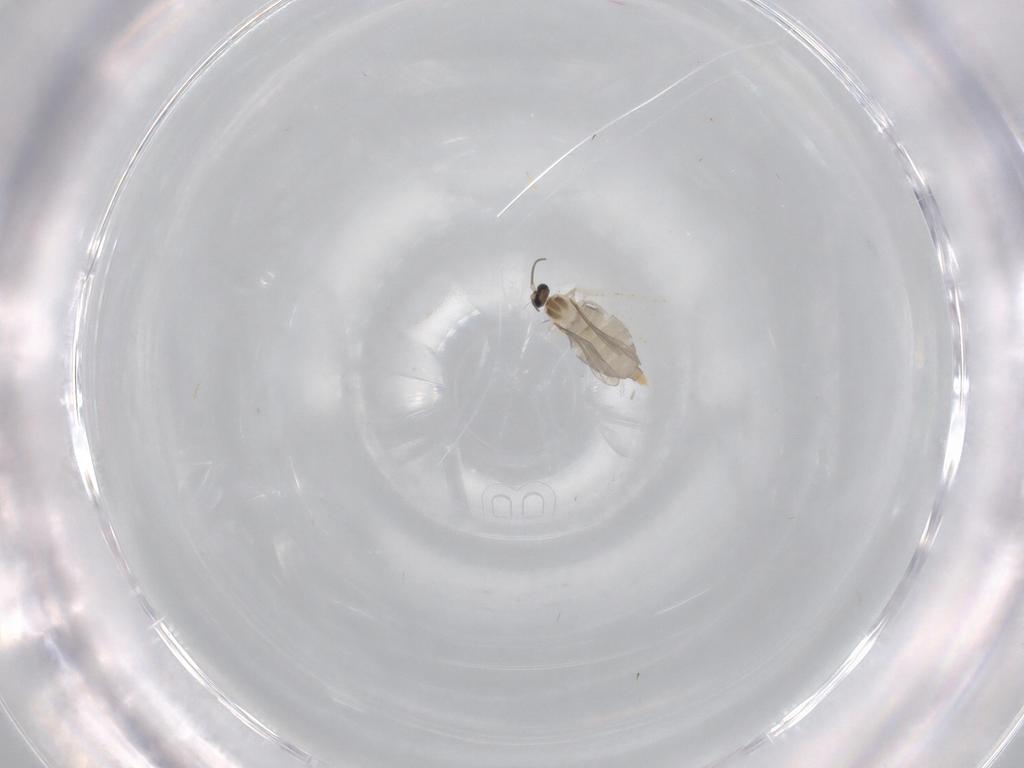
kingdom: Animalia
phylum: Arthropoda
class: Insecta
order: Diptera
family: Cecidomyiidae
